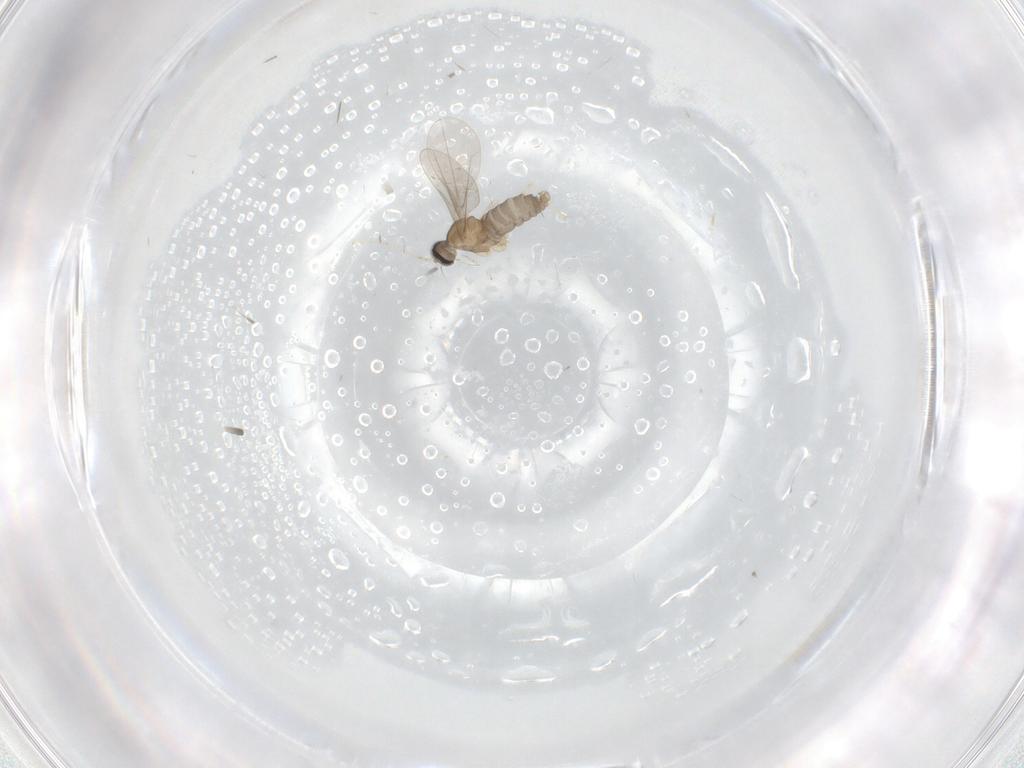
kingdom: Animalia
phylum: Arthropoda
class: Insecta
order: Diptera
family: Cecidomyiidae
